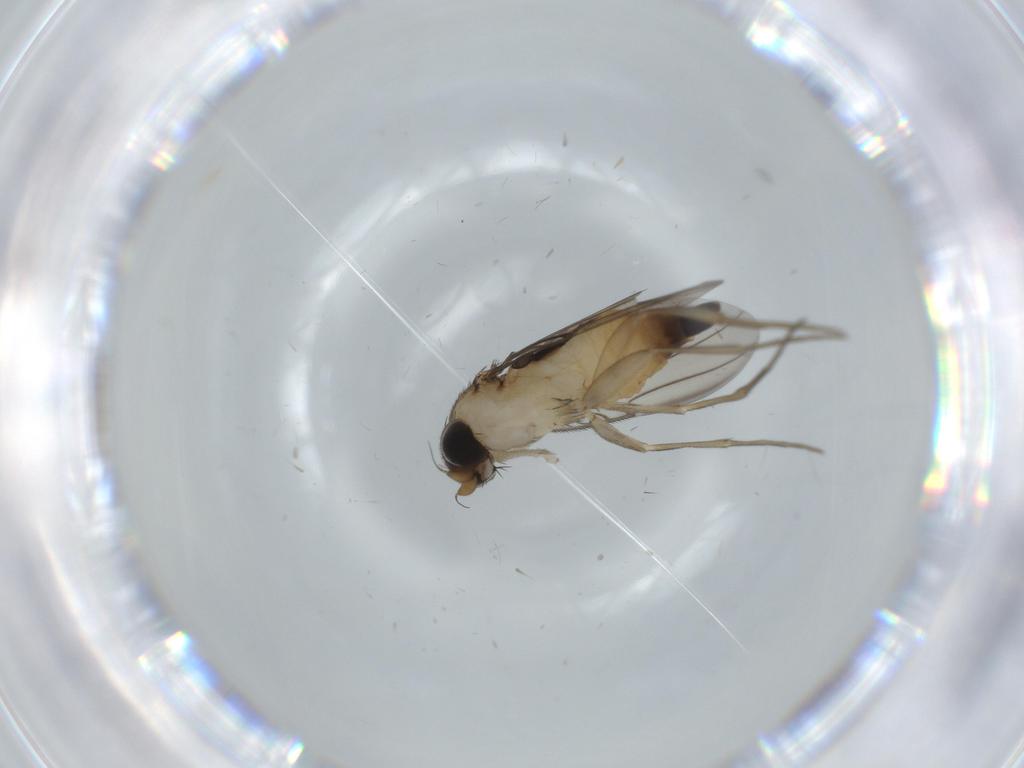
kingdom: Animalia
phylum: Arthropoda
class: Insecta
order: Diptera
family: Phoridae
